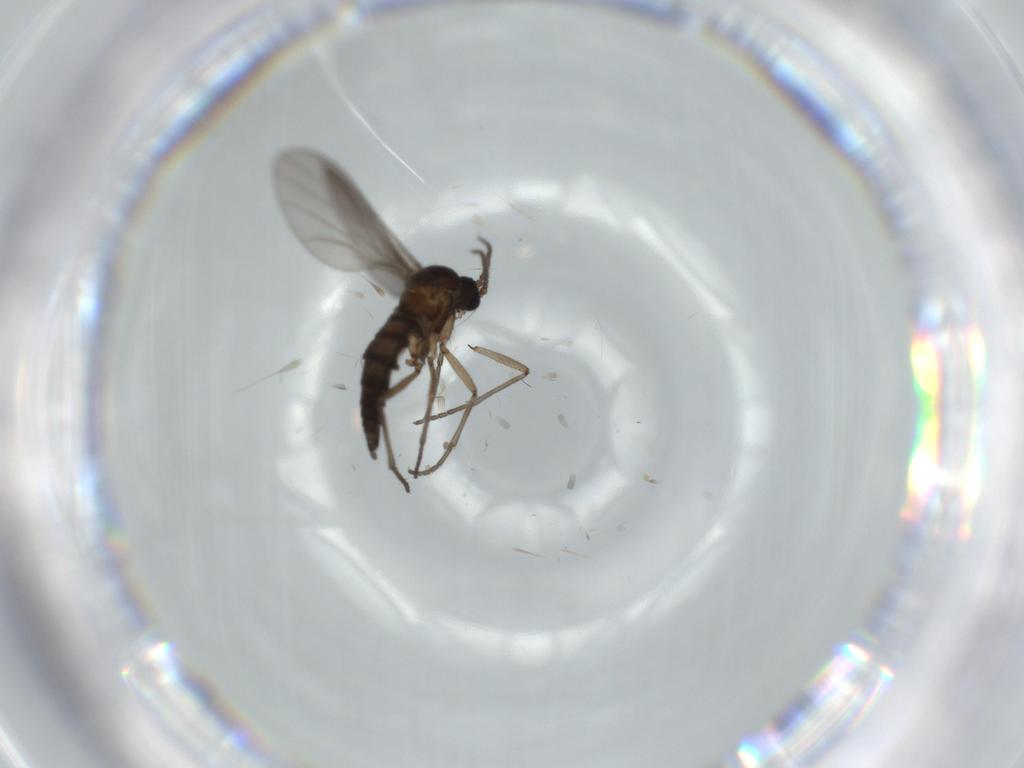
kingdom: Animalia
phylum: Arthropoda
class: Insecta
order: Diptera
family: Sciaridae
